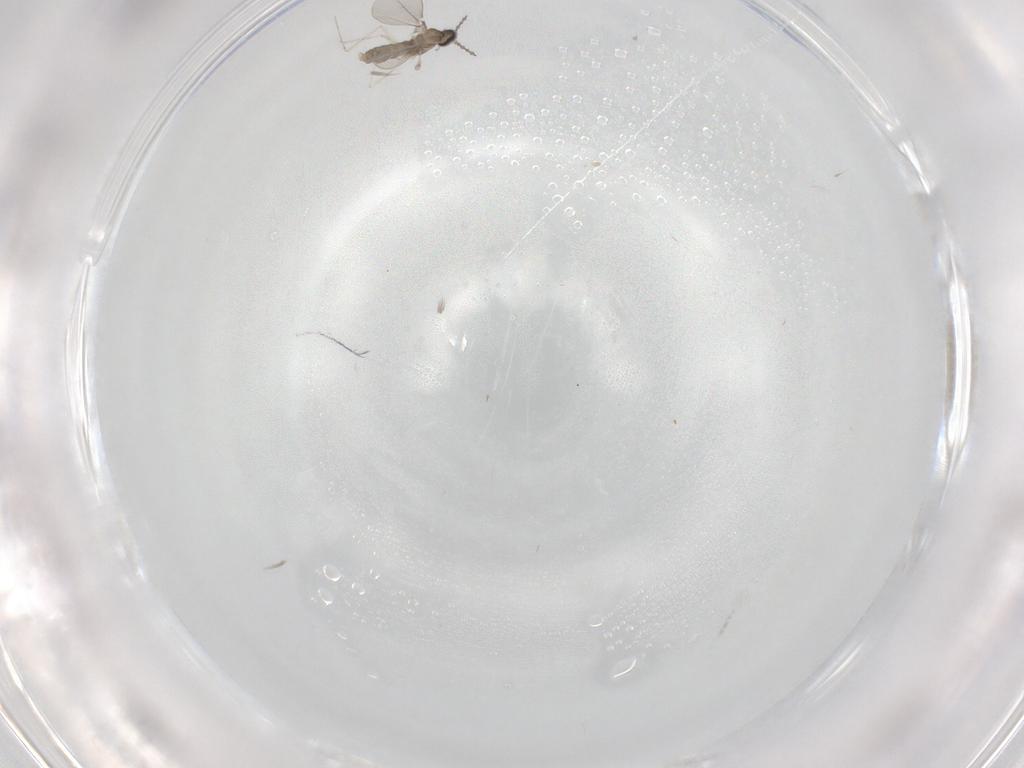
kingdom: Animalia
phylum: Arthropoda
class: Insecta
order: Diptera
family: Cecidomyiidae
